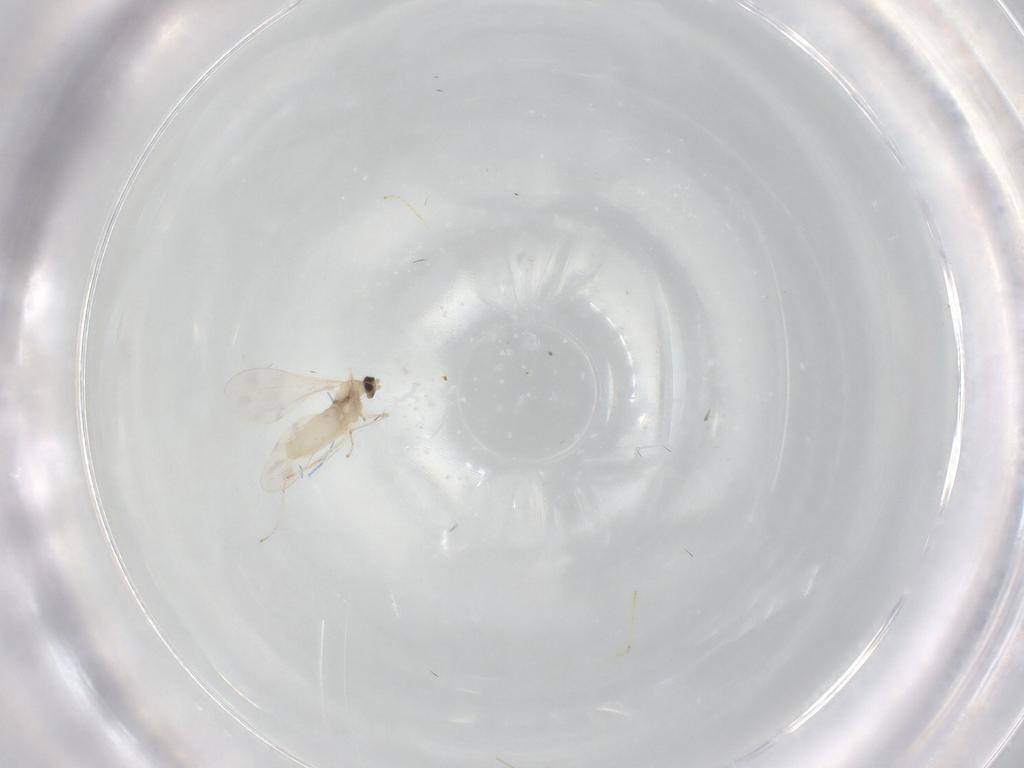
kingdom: Animalia
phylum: Arthropoda
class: Insecta
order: Diptera
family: Cecidomyiidae
